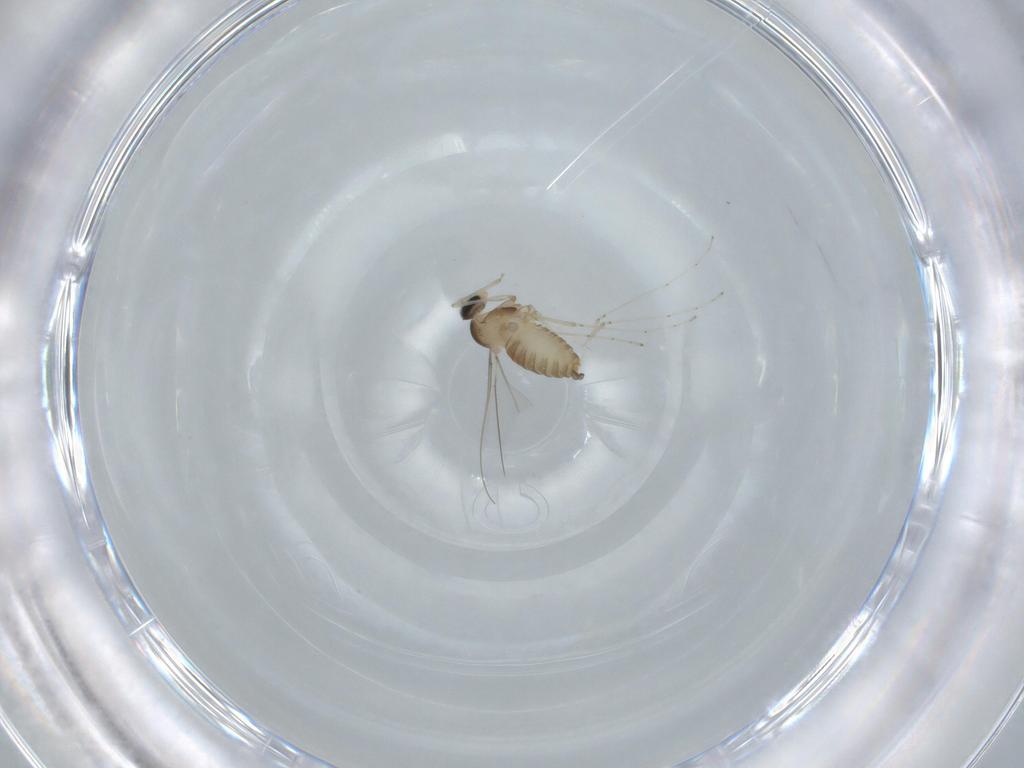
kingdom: Animalia
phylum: Arthropoda
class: Insecta
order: Diptera
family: Cecidomyiidae
